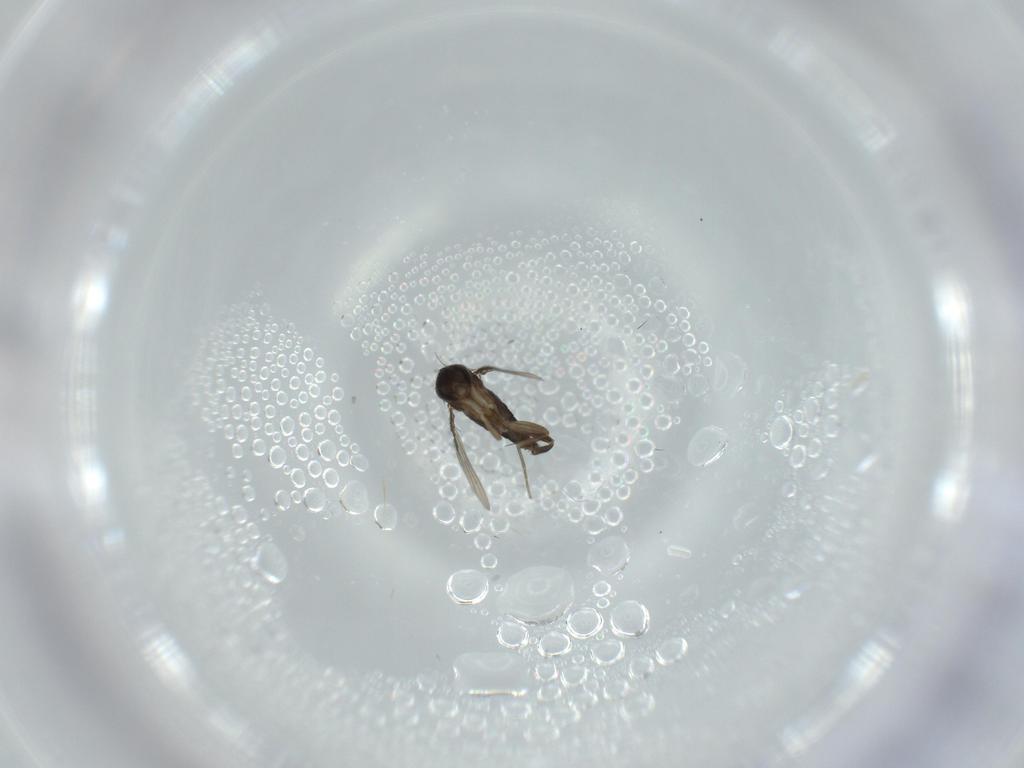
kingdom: Animalia
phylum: Arthropoda
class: Insecta
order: Diptera
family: Phoridae
